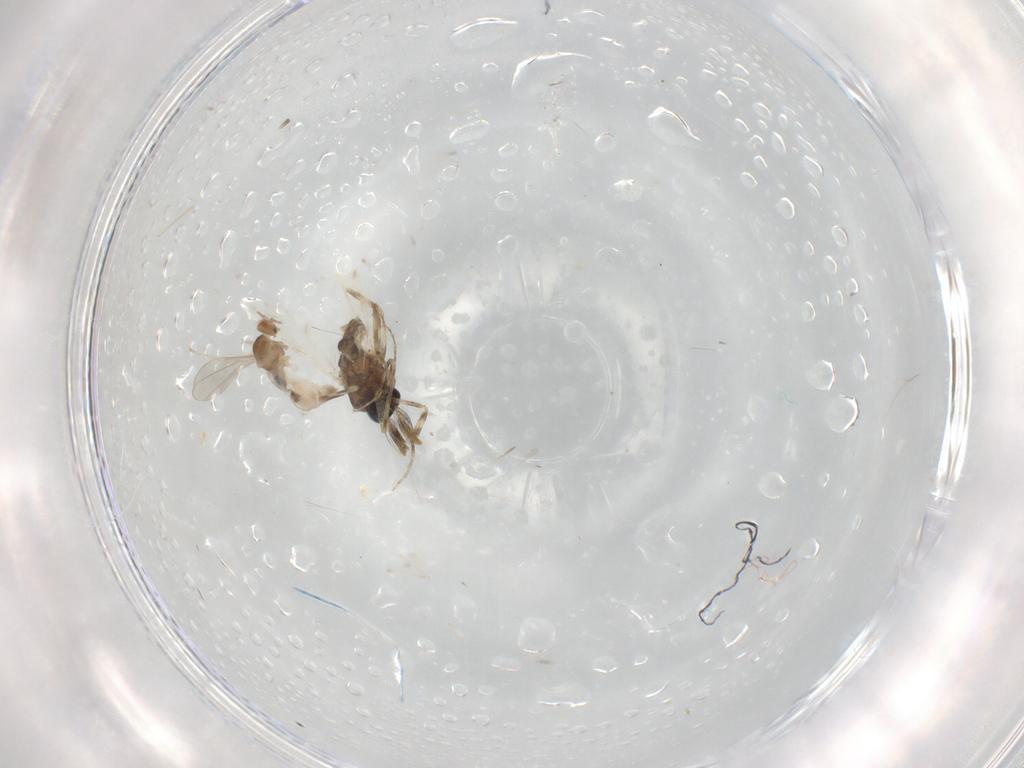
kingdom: Animalia
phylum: Arthropoda
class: Insecta
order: Diptera
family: Ceratopogonidae
